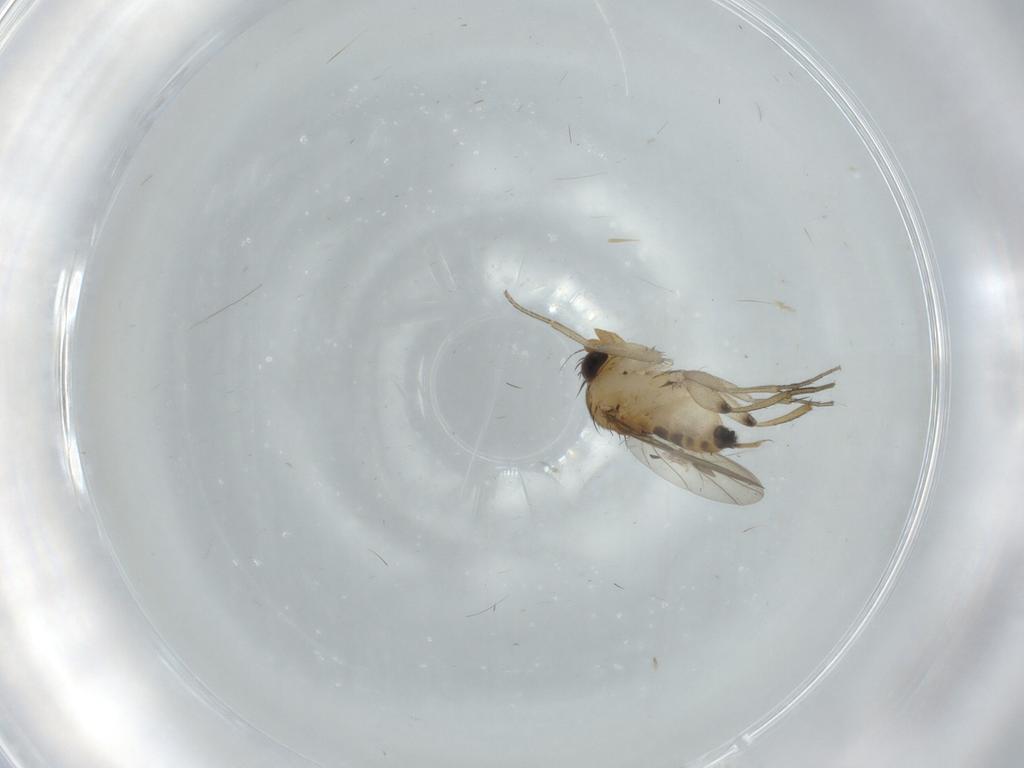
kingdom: Animalia
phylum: Arthropoda
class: Insecta
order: Diptera
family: Phoridae
